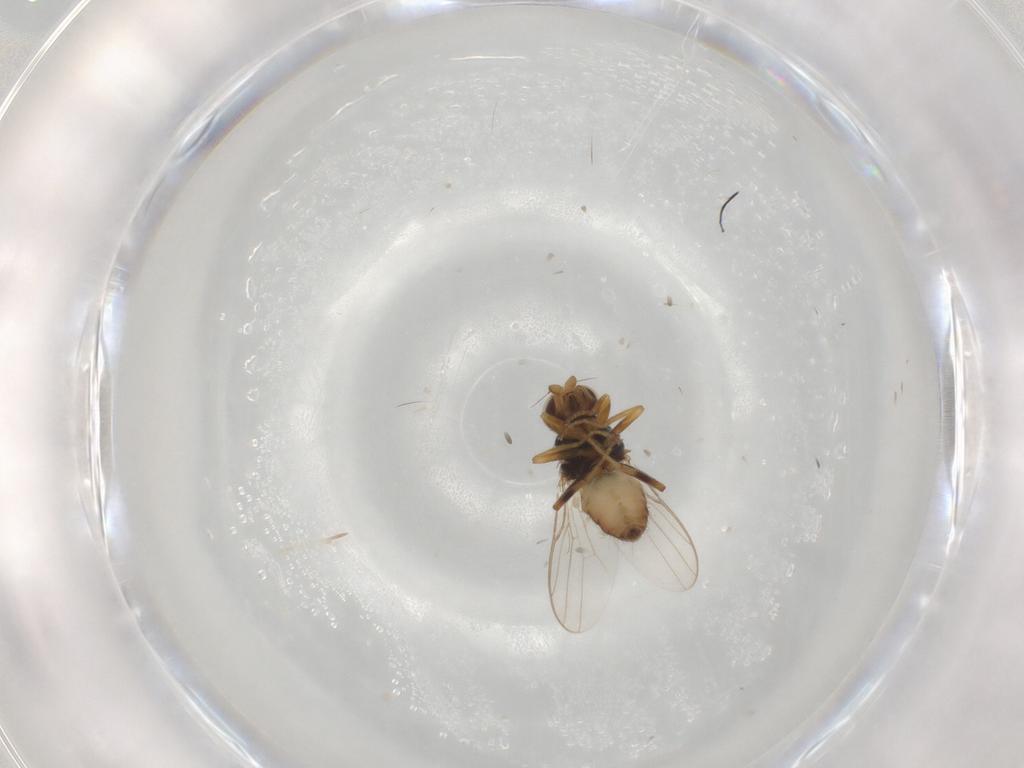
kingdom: Animalia
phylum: Arthropoda
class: Insecta
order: Diptera
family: Chloropidae
